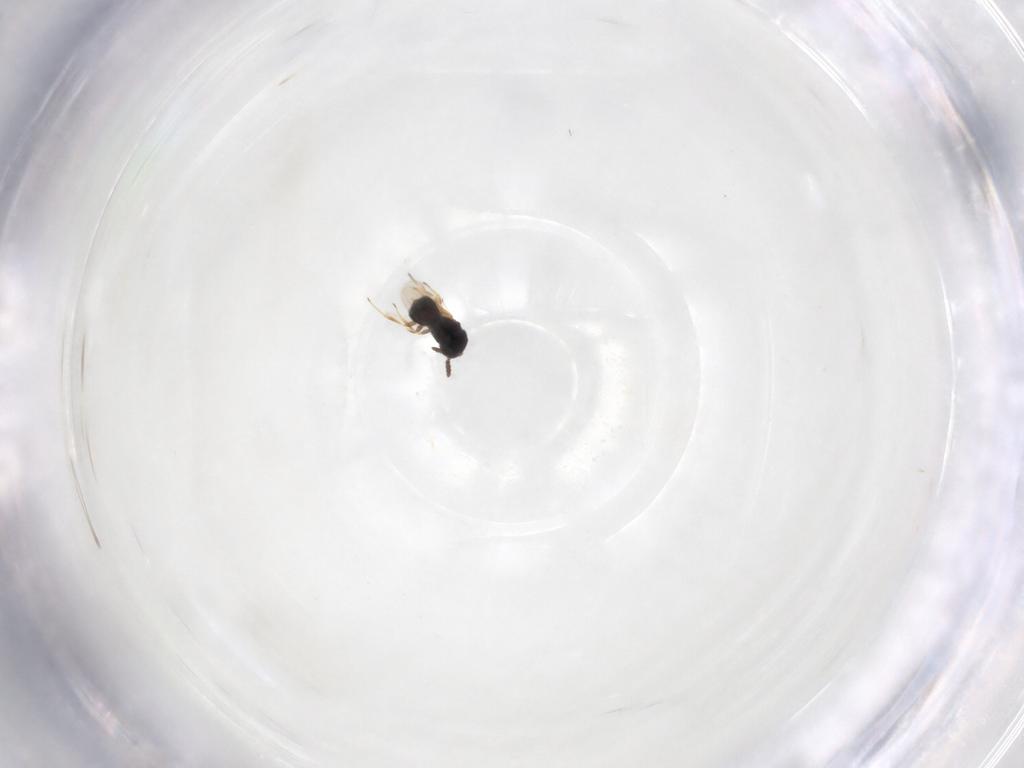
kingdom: Animalia
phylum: Arthropoda
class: Insecta
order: Hymenoptera
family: Scelionidae
